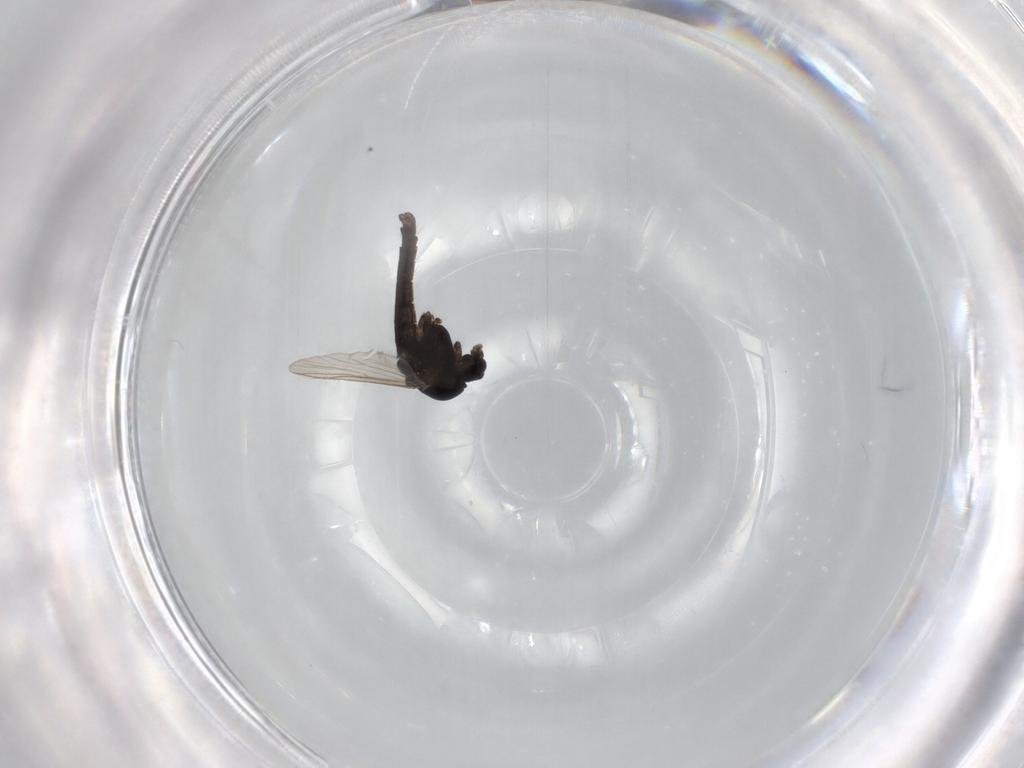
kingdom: Animalia
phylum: Arthropoda
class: Insecta
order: Diptera
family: Chironomidae
